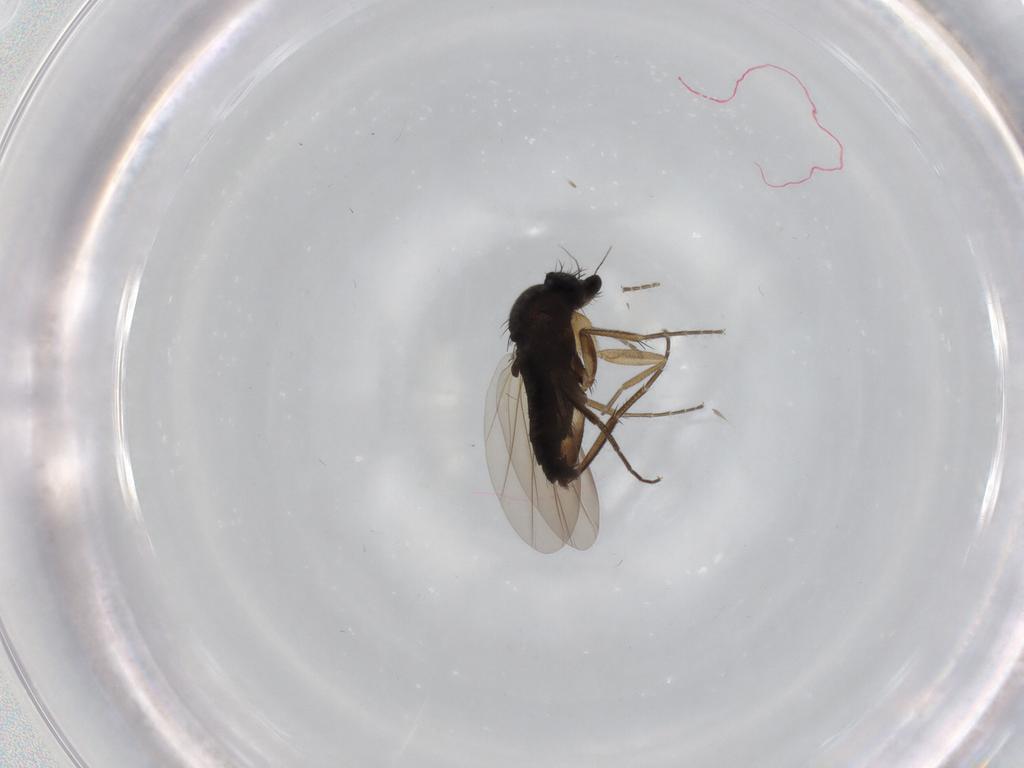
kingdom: Animalia
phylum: Arthropoda
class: Insecta
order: Diptera
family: Phoridae
